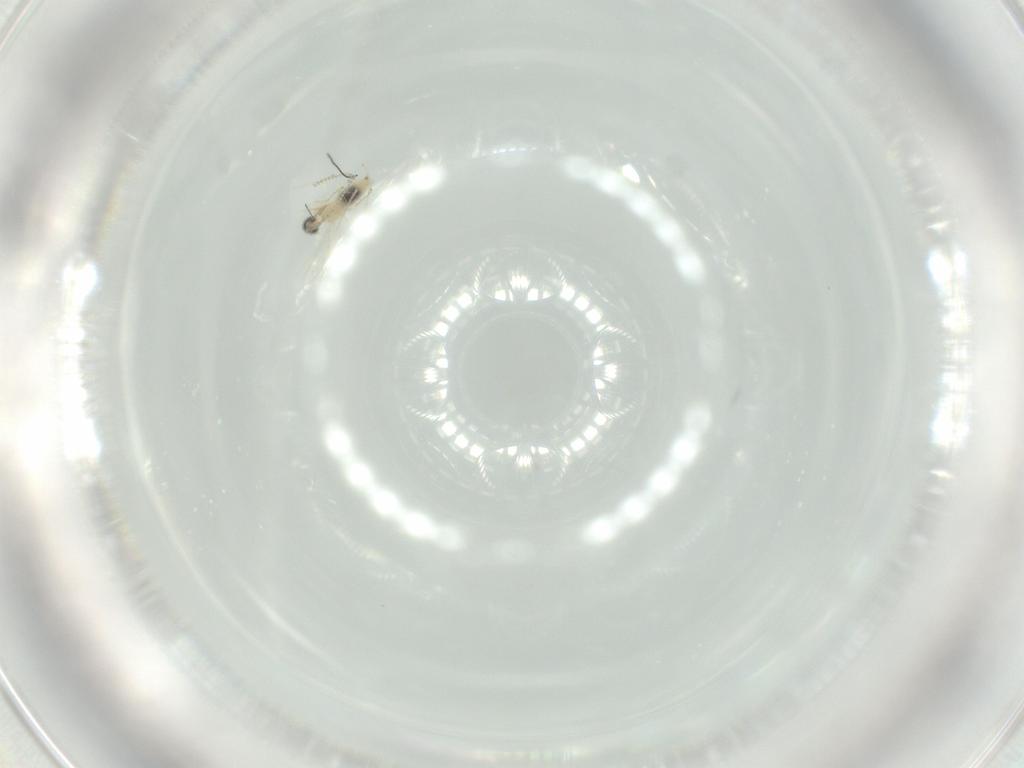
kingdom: Animalia
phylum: Arthropoda
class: Insecta
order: Diptera
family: Cecidomyiidae
